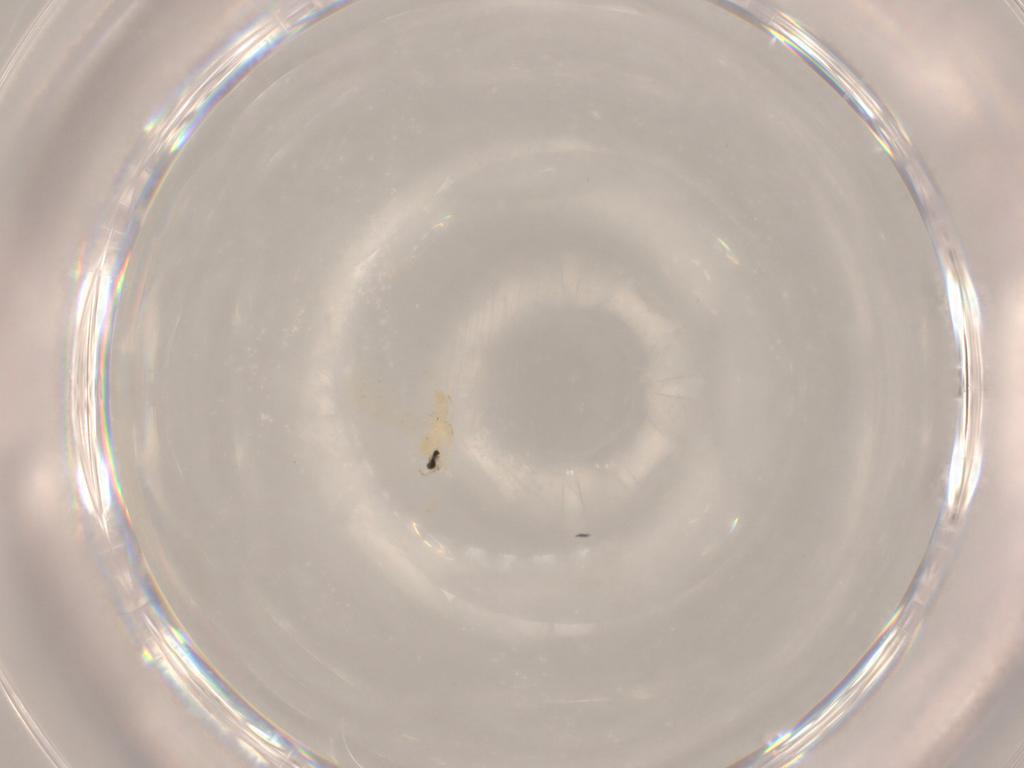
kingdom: Animalia
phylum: Arthropoda
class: Insecta
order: Diptera
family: Cecidomyiidae
